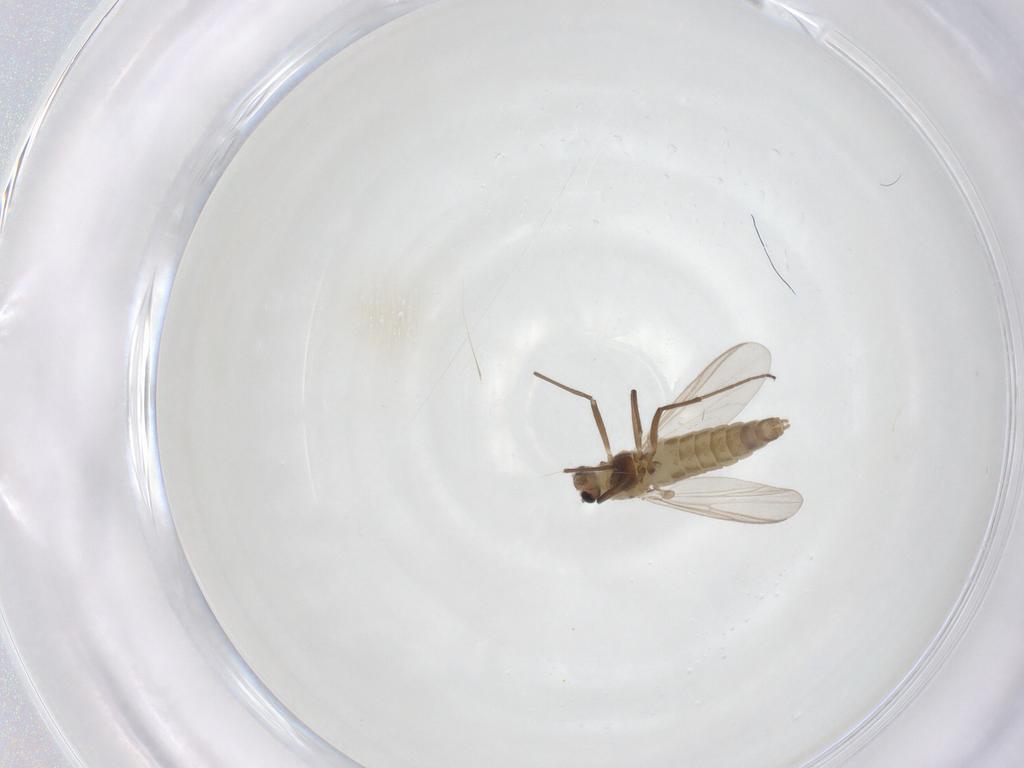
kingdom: Animalia
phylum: Arthropoda
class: Insecta
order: Diptera
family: Chironomidae
